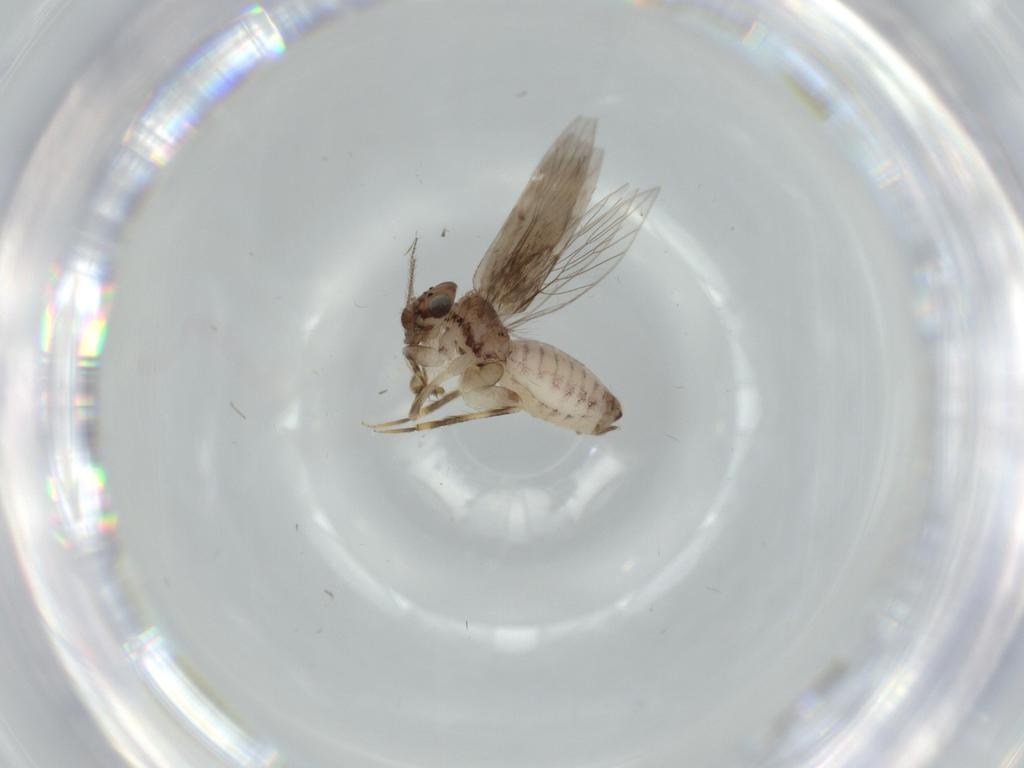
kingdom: Animalia
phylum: Arthropoda
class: Insecta
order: Psocodea
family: Lepidopsocidae
